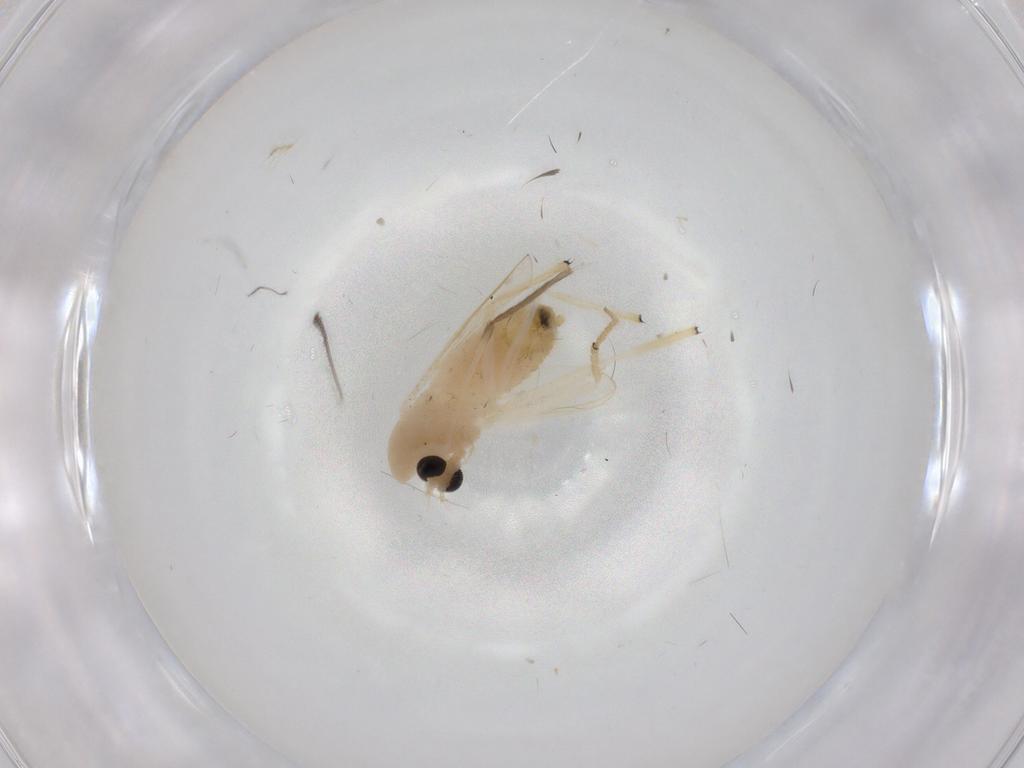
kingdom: Animalia
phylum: Arthropoda
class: Insecta
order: Diptera
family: Chironomidae
